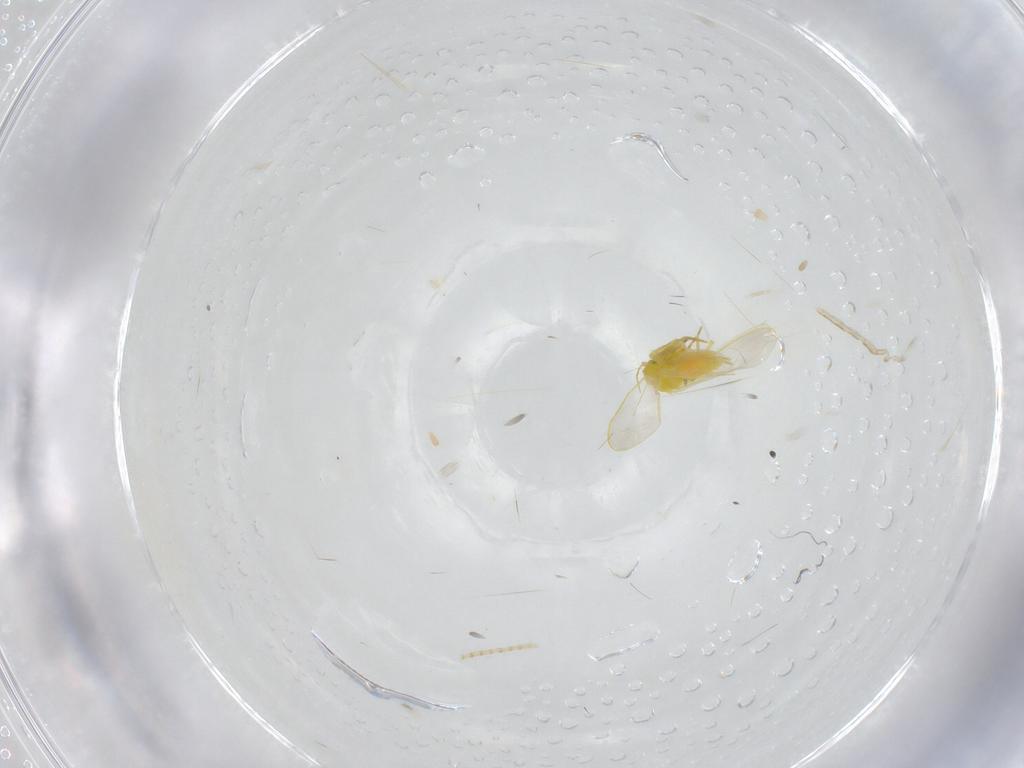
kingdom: Animalia
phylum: Arthropoda
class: Insecta
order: Hemiptera
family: Aleyrodidae
